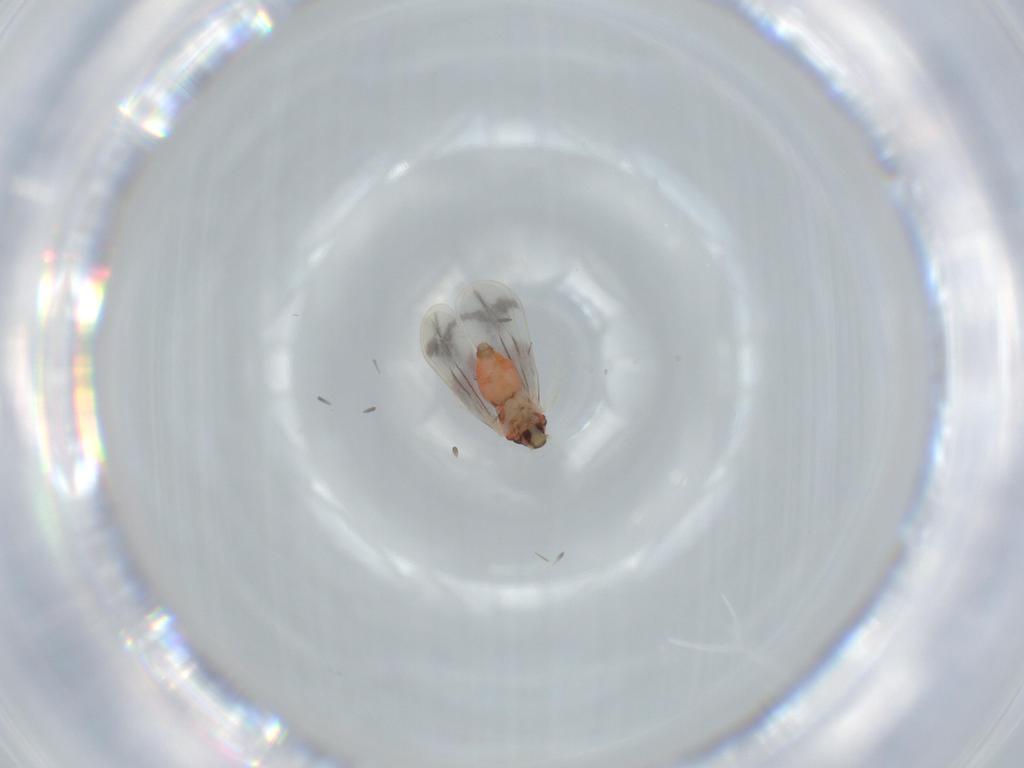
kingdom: Animalia
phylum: Arthropoda
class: Insecta
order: Hemiptera
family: Aleyrodidae
